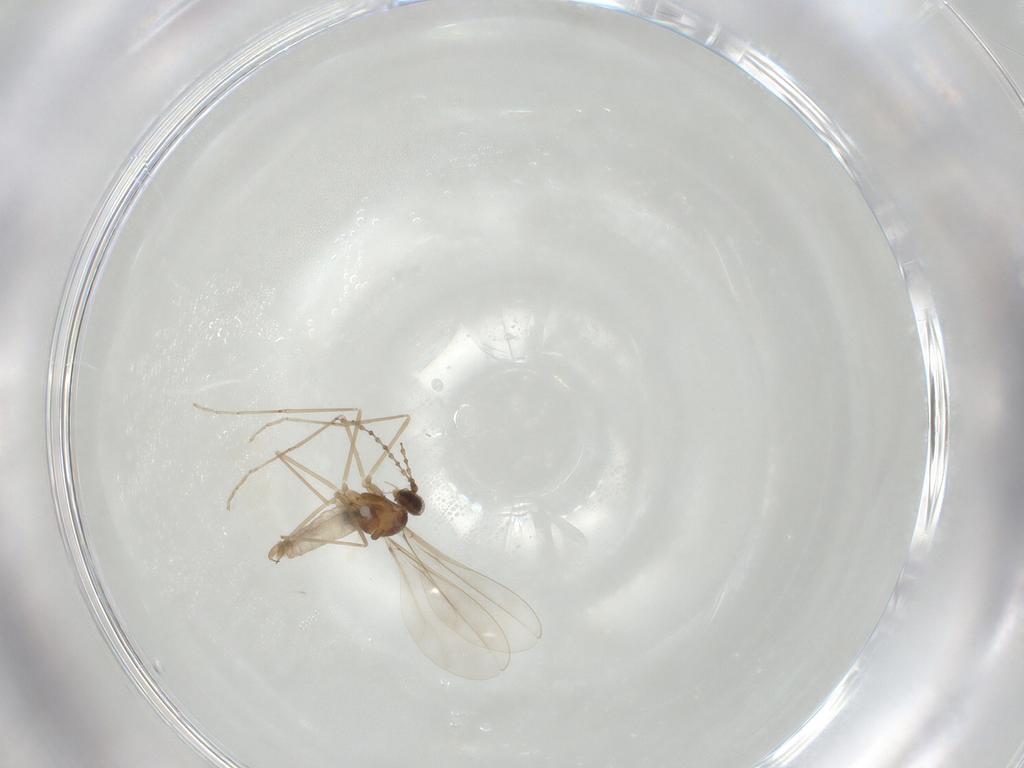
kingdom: Animalia
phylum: Arthropoda
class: Insecta
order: Diptera
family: Cecidomyiidae
